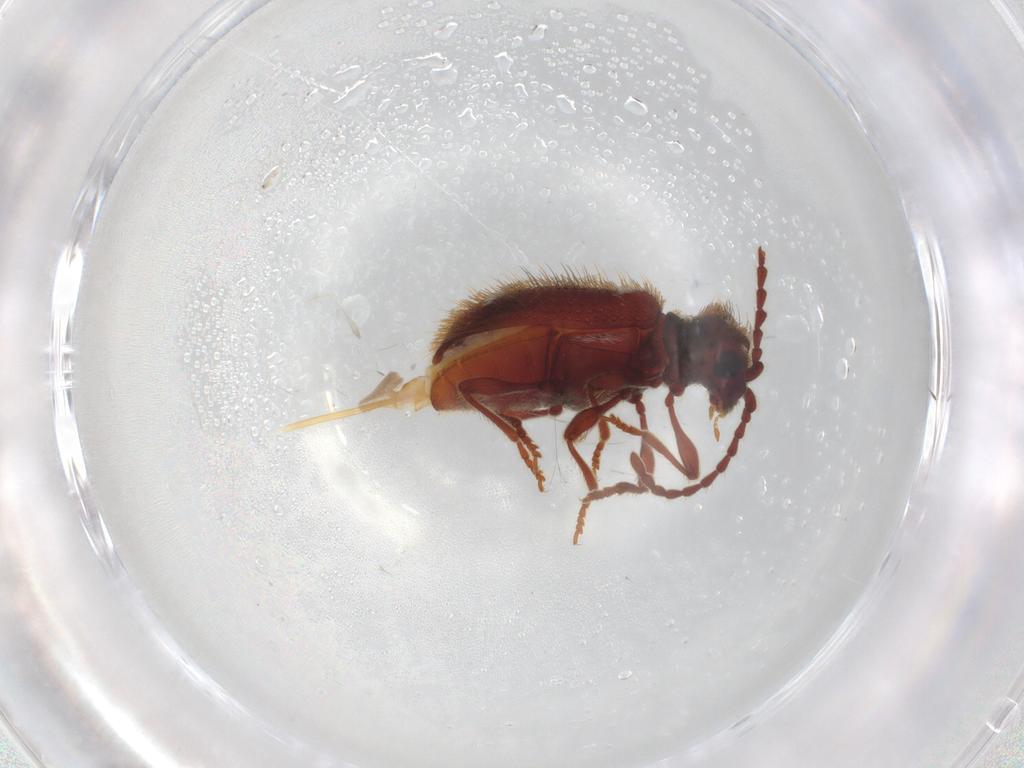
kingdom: Animalia
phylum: Arthropoda
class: Insecta
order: Coleoptera
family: Ptinidae
